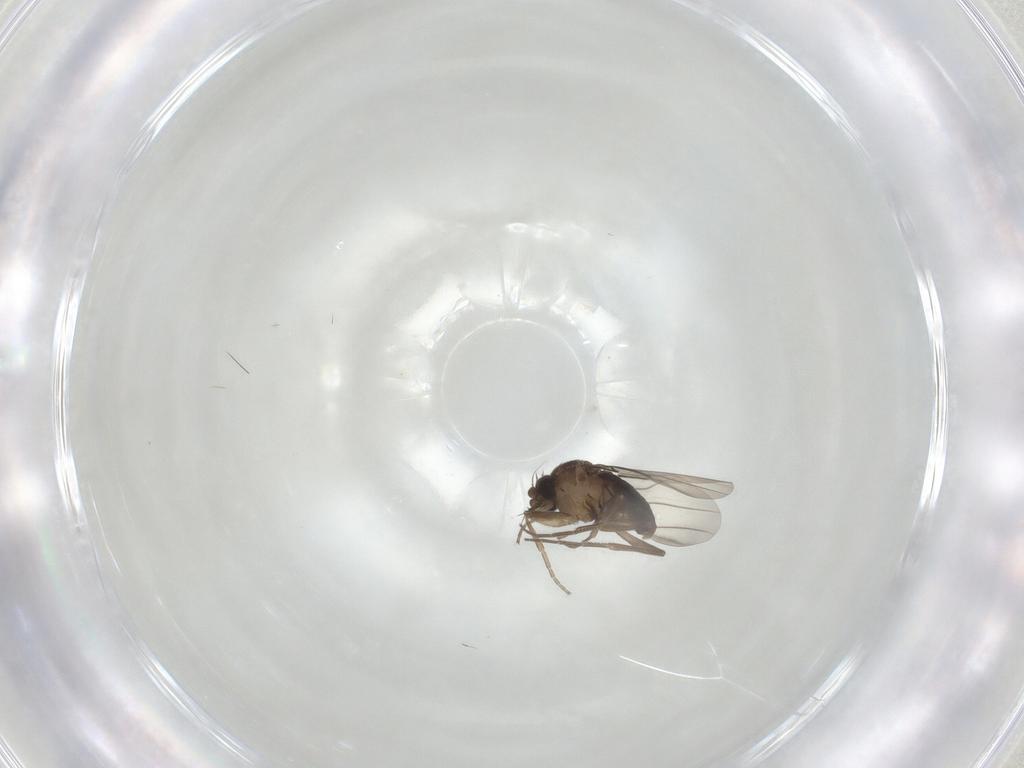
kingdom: Animalia
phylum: Arthropoda
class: Insecta
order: Diptera
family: Phoridae
